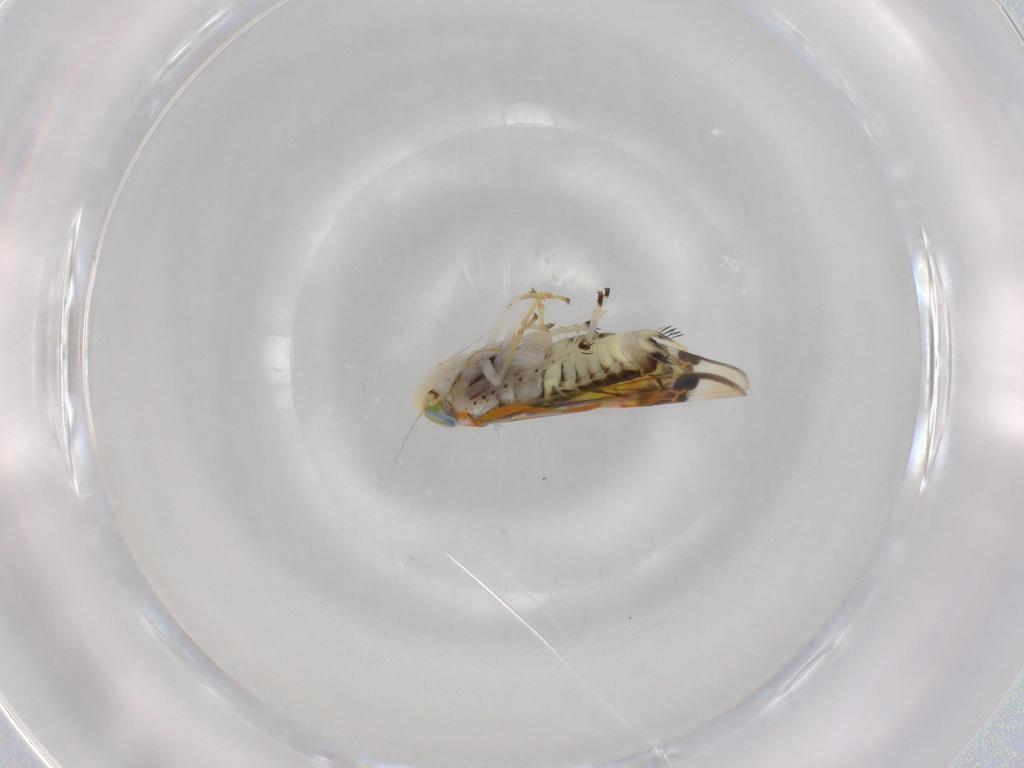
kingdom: Animalia
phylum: Arthropoda
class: Insecta
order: Hemiptera
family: Cicadellidae
